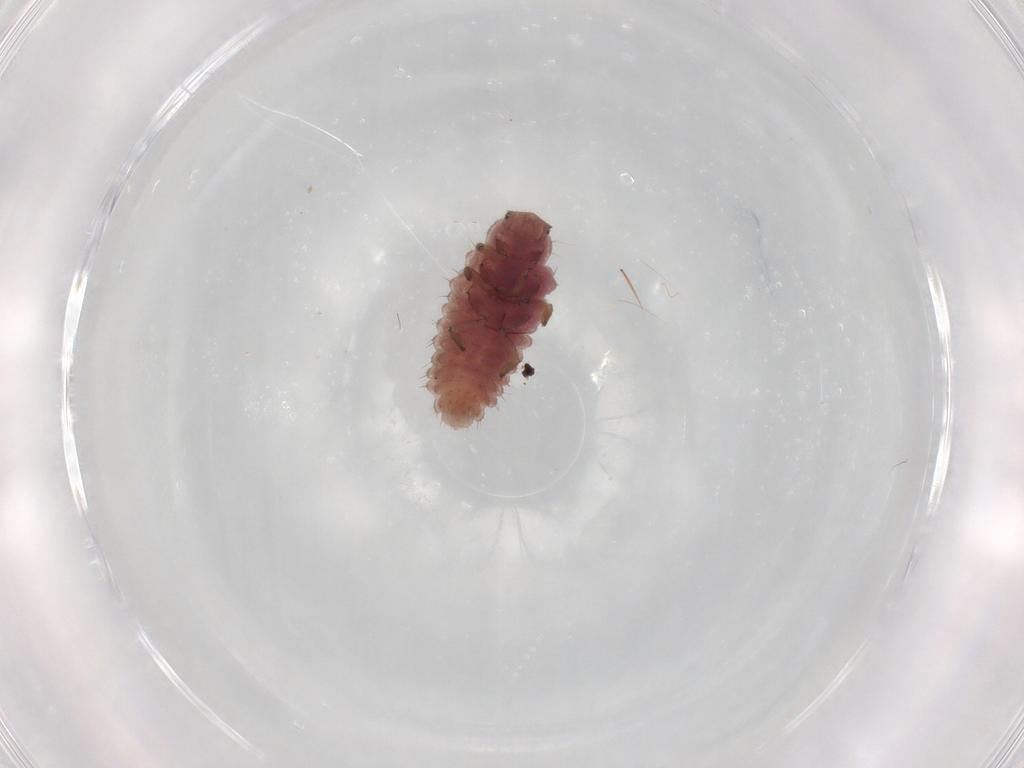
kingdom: Animalia
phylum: Arthropoda
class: Insecta
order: Coleoptera
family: Coccinellidae
